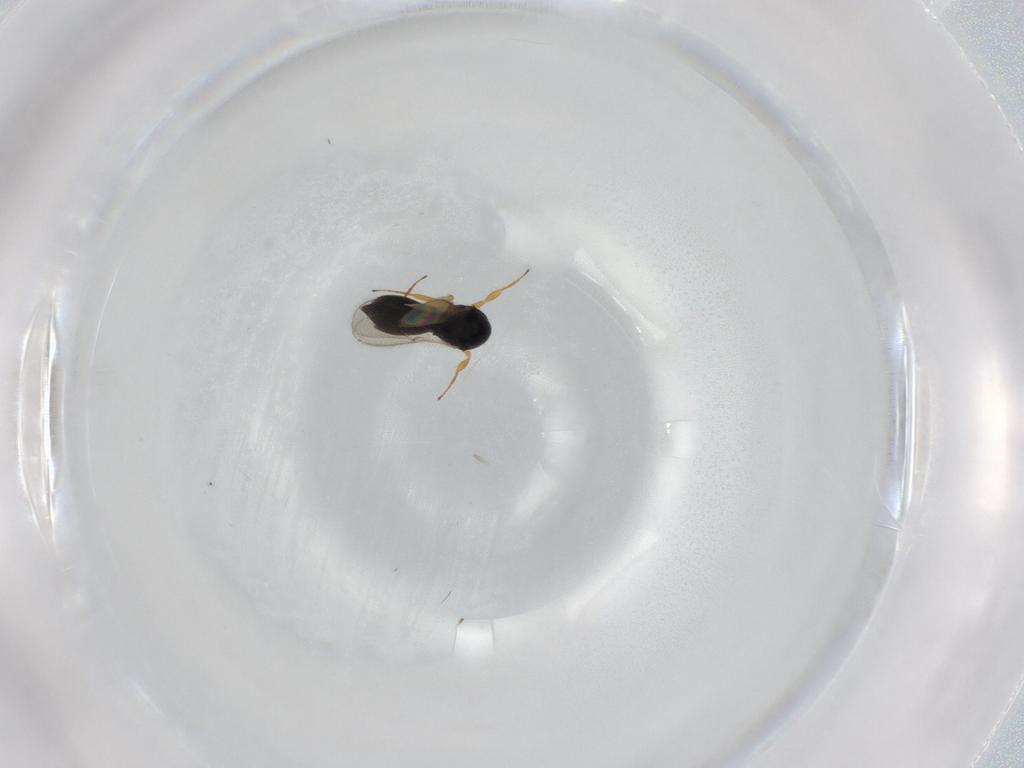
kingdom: Animalia
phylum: Arthropoda
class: Insecta
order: Hymenoptera
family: Scelionidae
